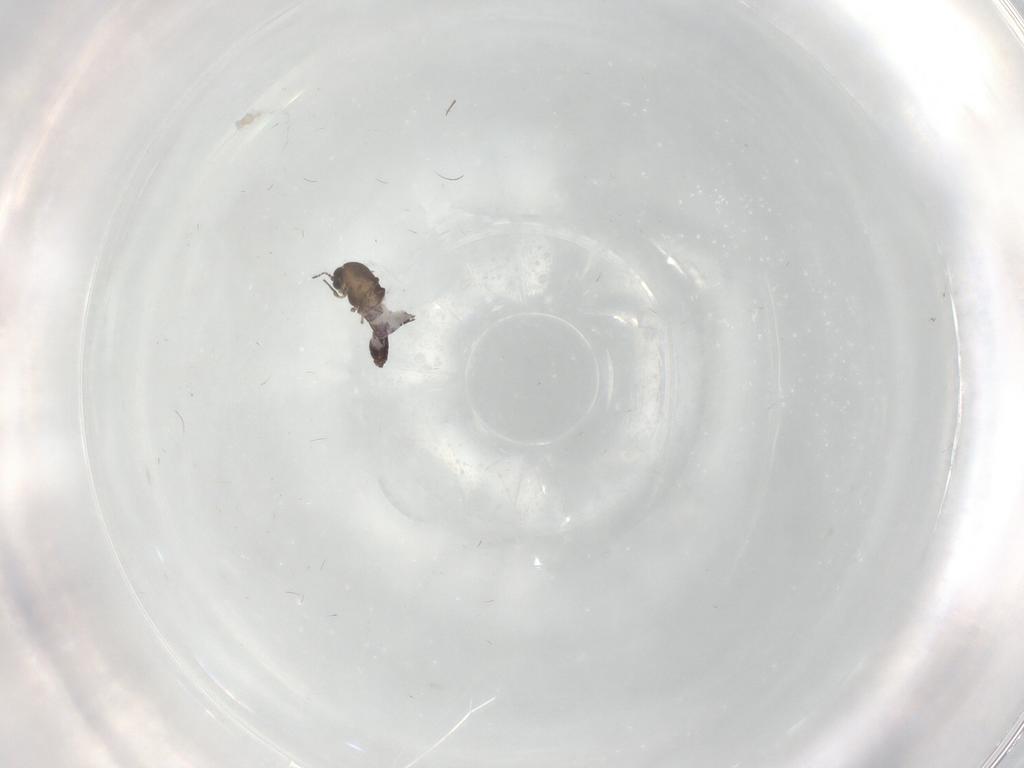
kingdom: Animalia
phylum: Arthropoda
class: Insecta
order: Diptera
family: Chironomidae
